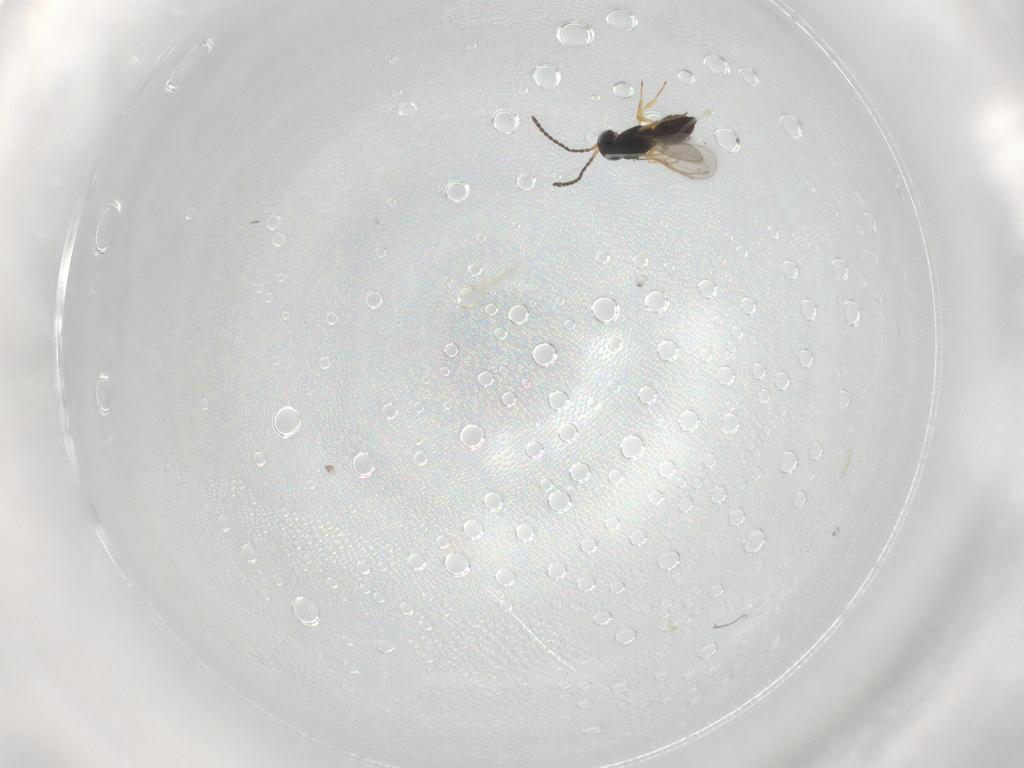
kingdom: Animalia
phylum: Arthropoda
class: Insecta
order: Hymenoptera
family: Scelionidae
